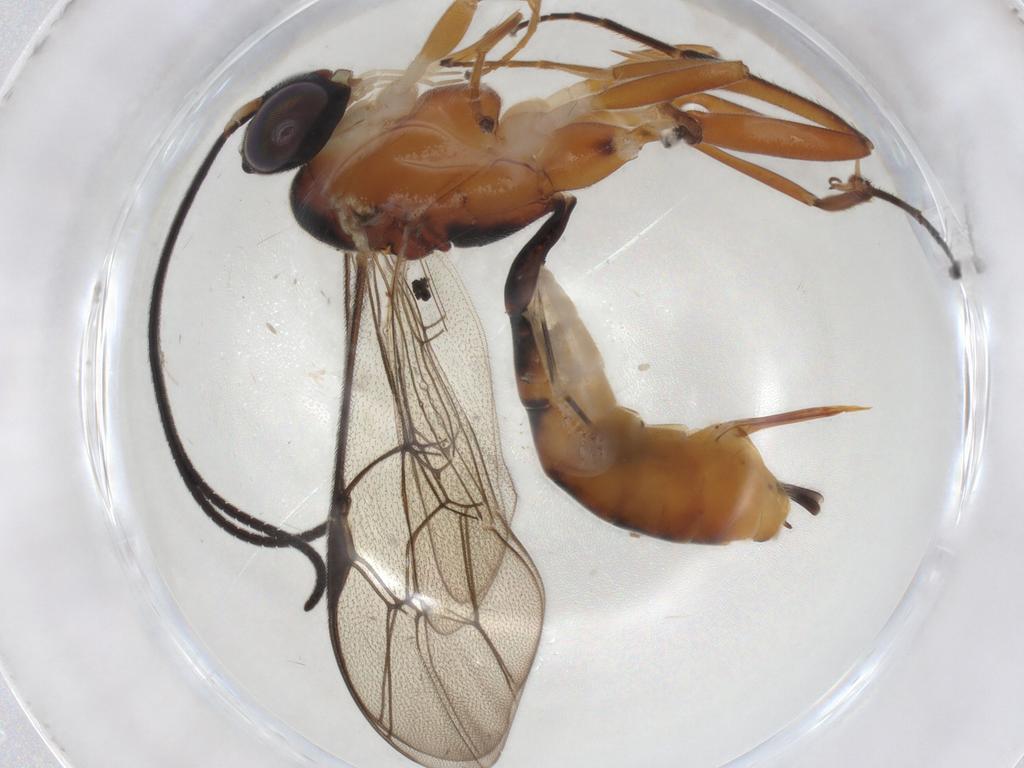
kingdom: Animalia
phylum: Arthropoda
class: Insecta
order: Hymenoptera
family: Ichneumonidae
